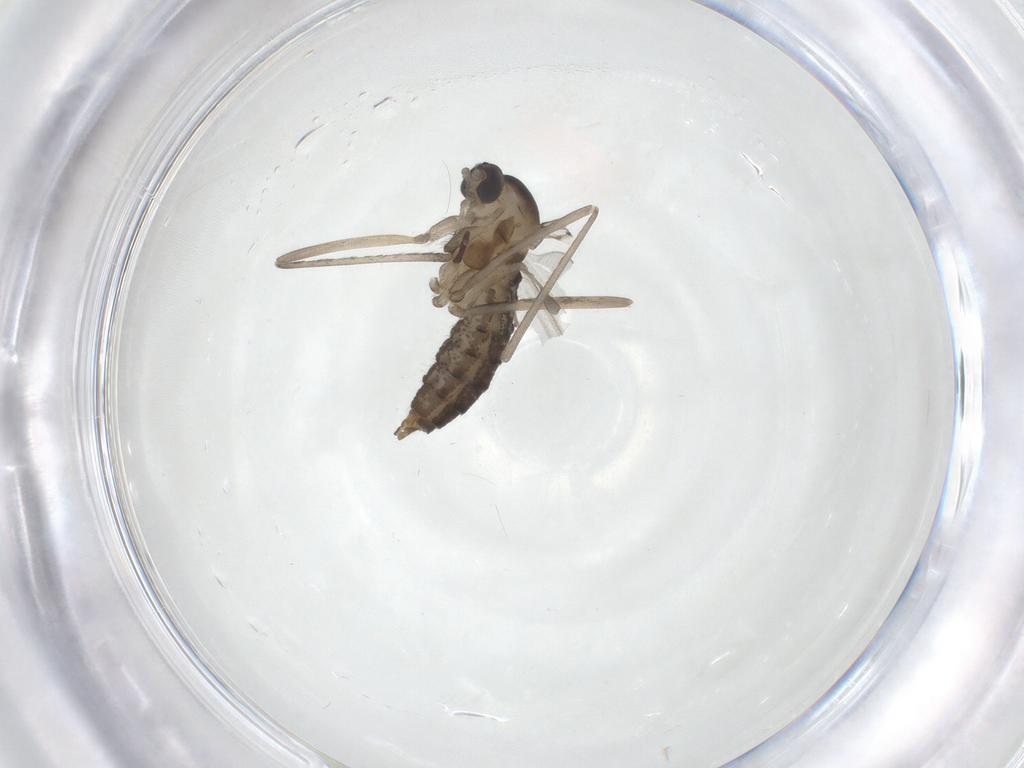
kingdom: Animalia
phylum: Arthropoda
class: Insecta
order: Diptera
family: Cecidomyiidae
